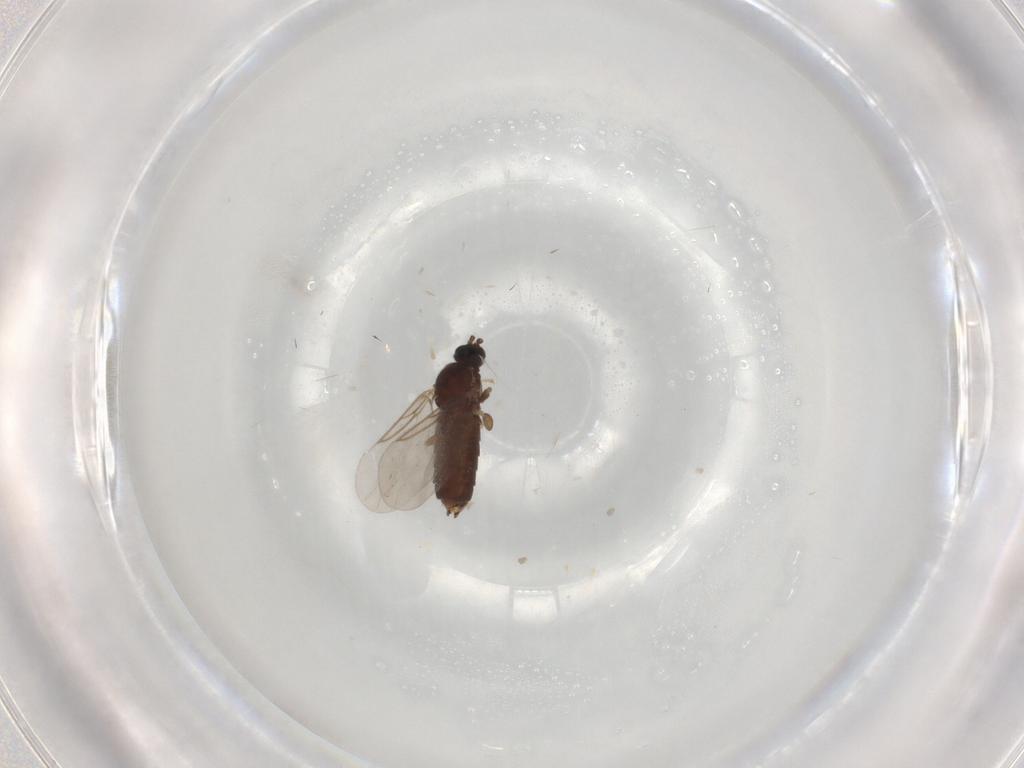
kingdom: Animalia
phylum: Arthropoda
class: Insecta
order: Diptera
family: Hybotidae
